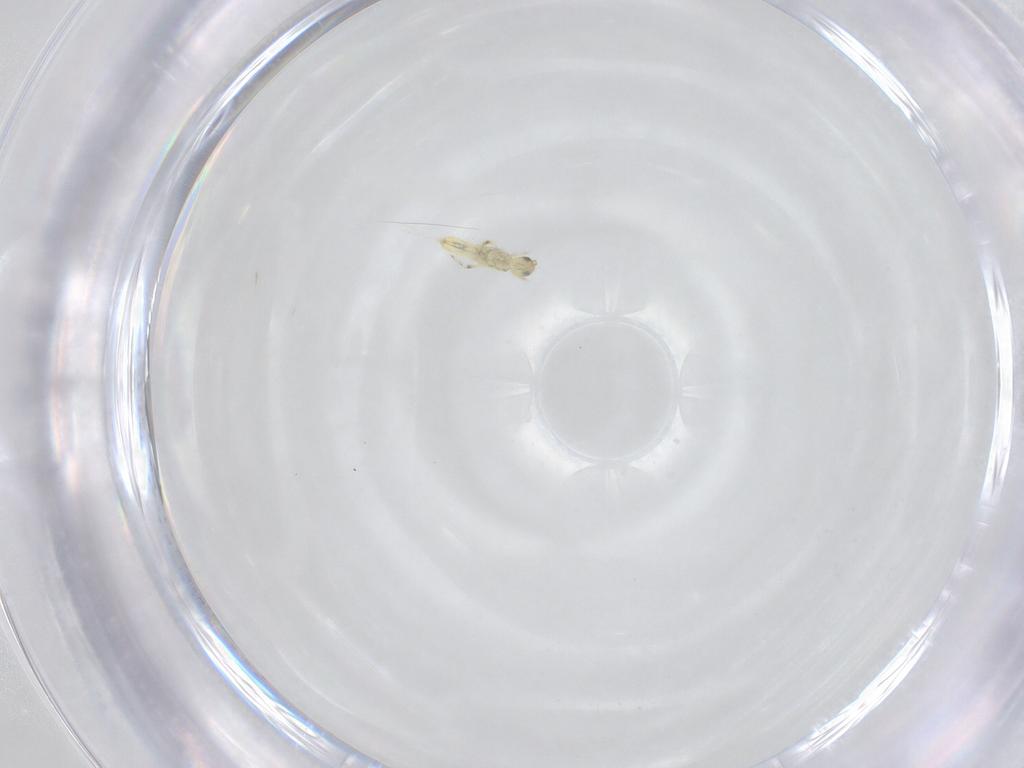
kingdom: Animalia
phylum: Arthropoda
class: Collembola
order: Entomobryomorpha
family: Entomobryidae
